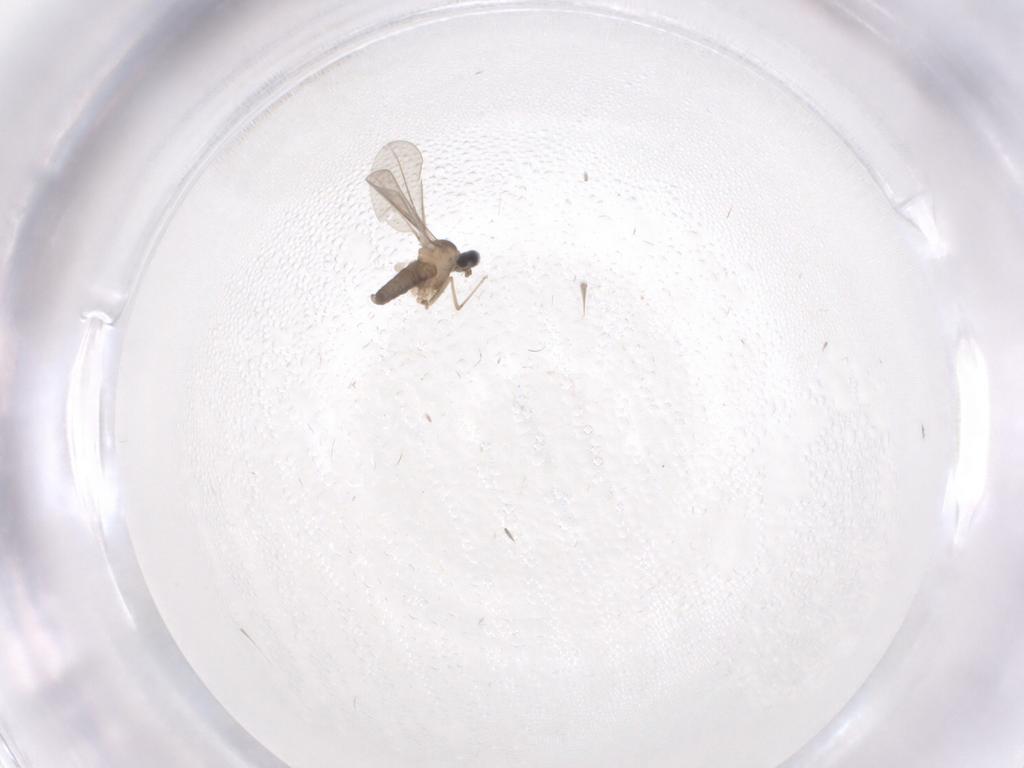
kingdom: Animalia
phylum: Arthropoda
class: Insecta
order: Diptera
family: Cecidomyiidae
